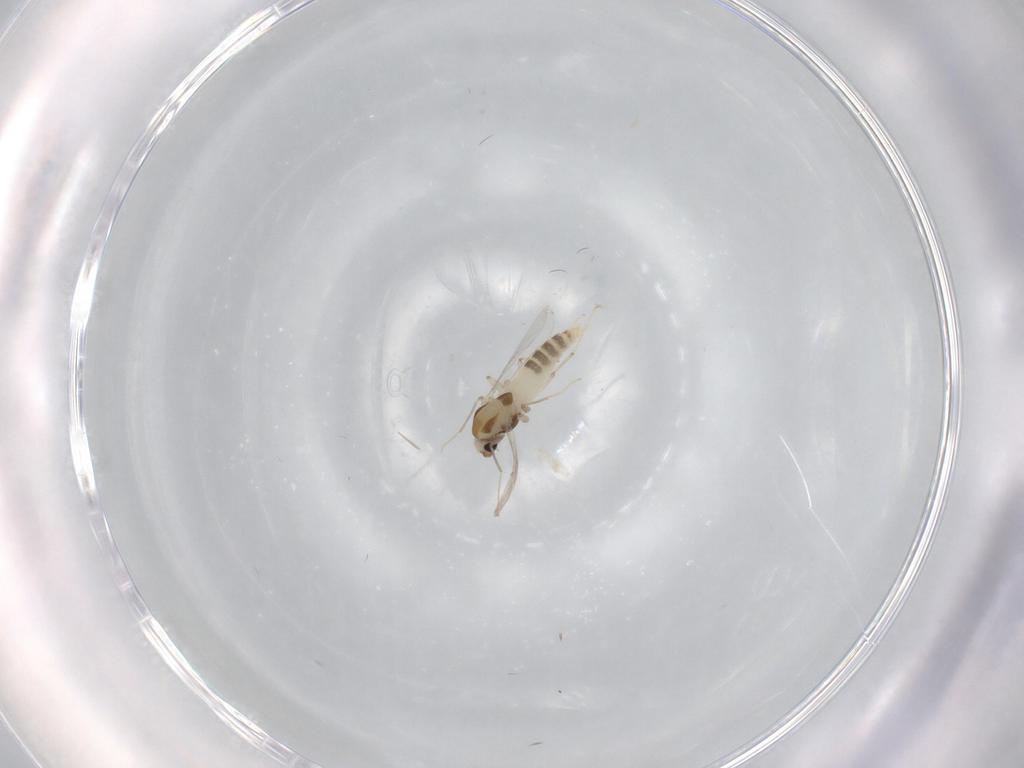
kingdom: Animalia
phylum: Arthropoda
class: Insecta
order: Diptera
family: Chironomidae
